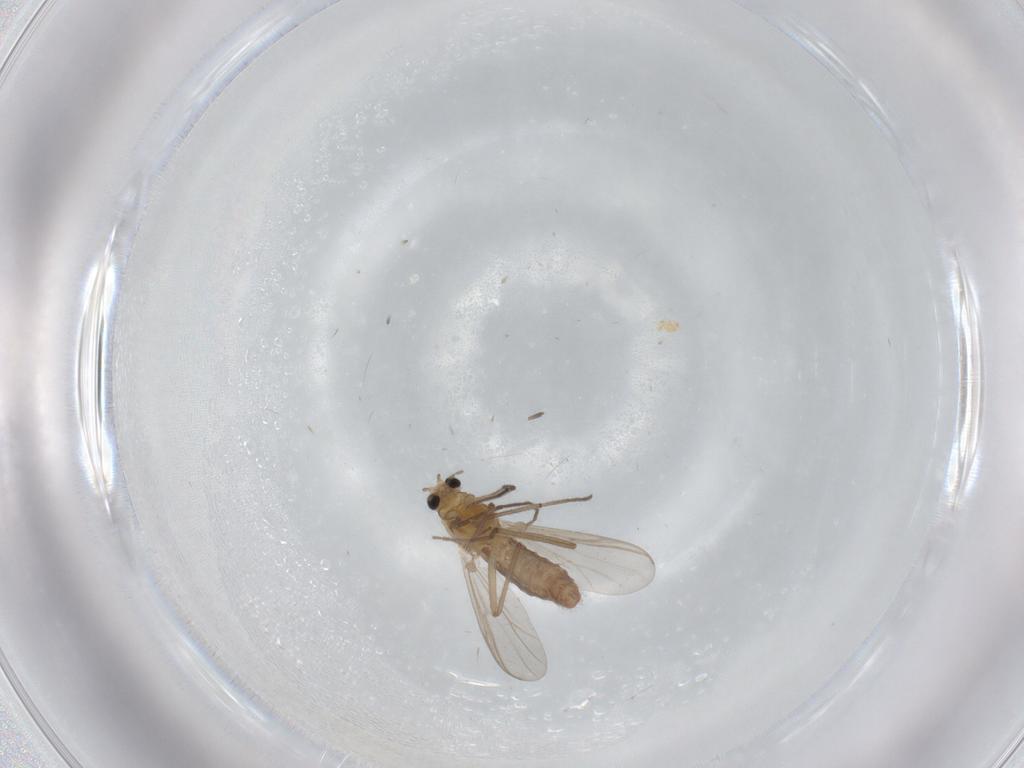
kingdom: Animalia
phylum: Arthropoda
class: Insecta
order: Diptera
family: Chironomidae
